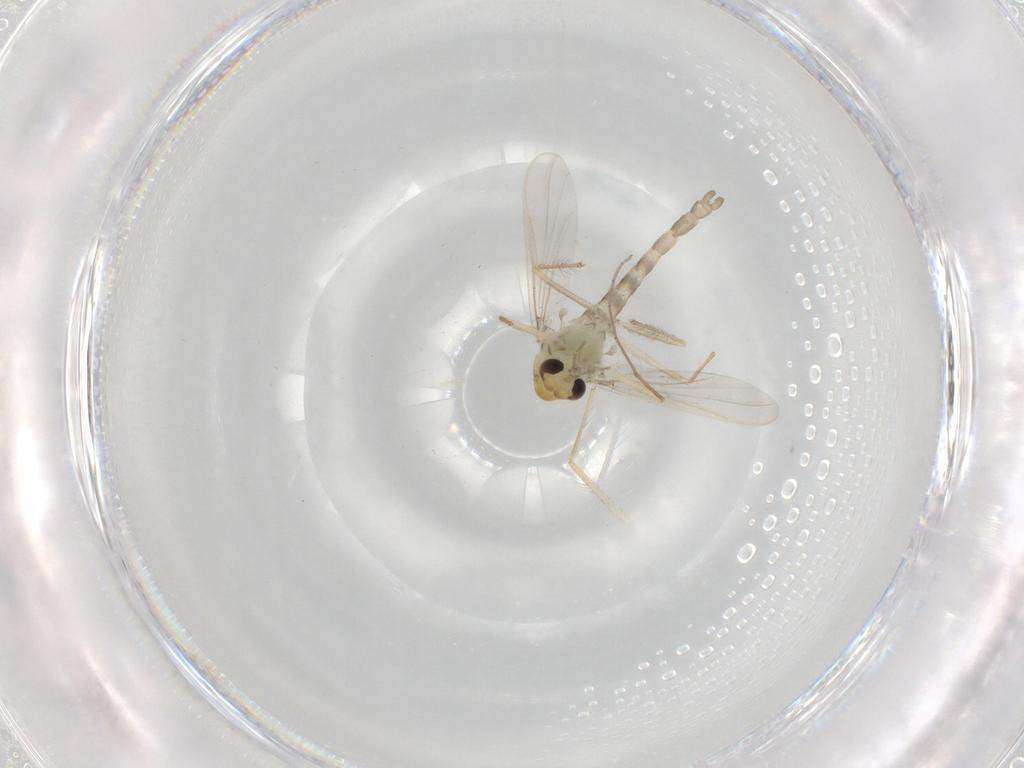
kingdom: Animalia
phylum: Arthropoda
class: Insecta
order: Diptera
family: Chironomidae
